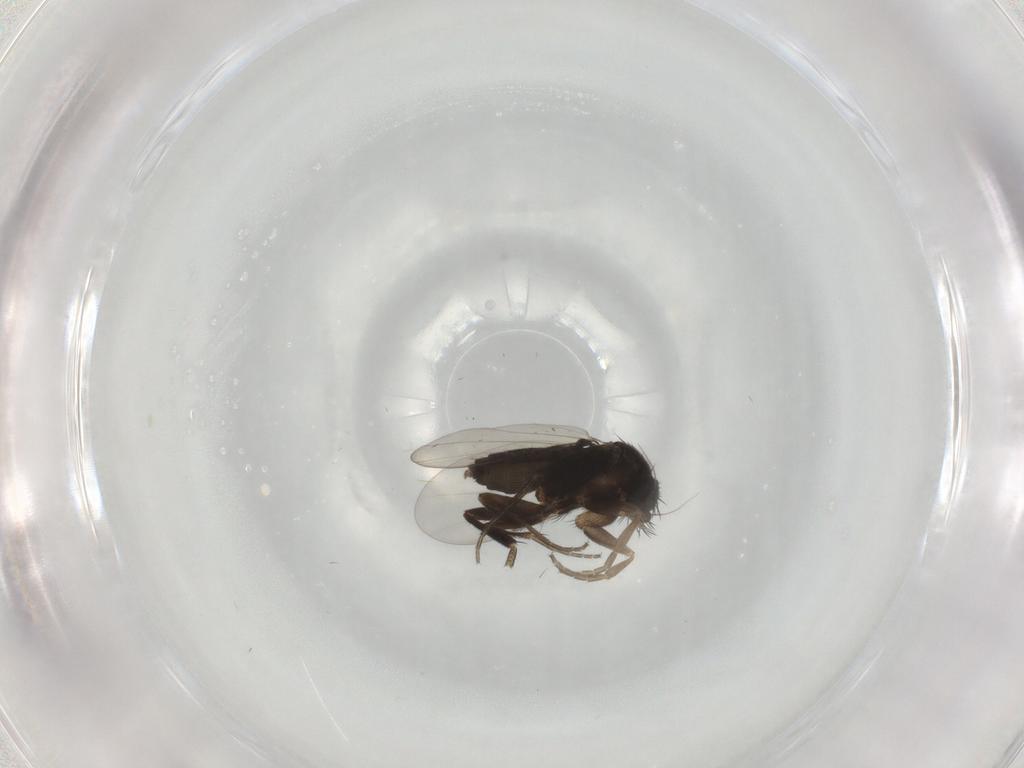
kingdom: Animalia
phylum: Arthropoda
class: Insecta
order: Diptera
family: Phoridae
